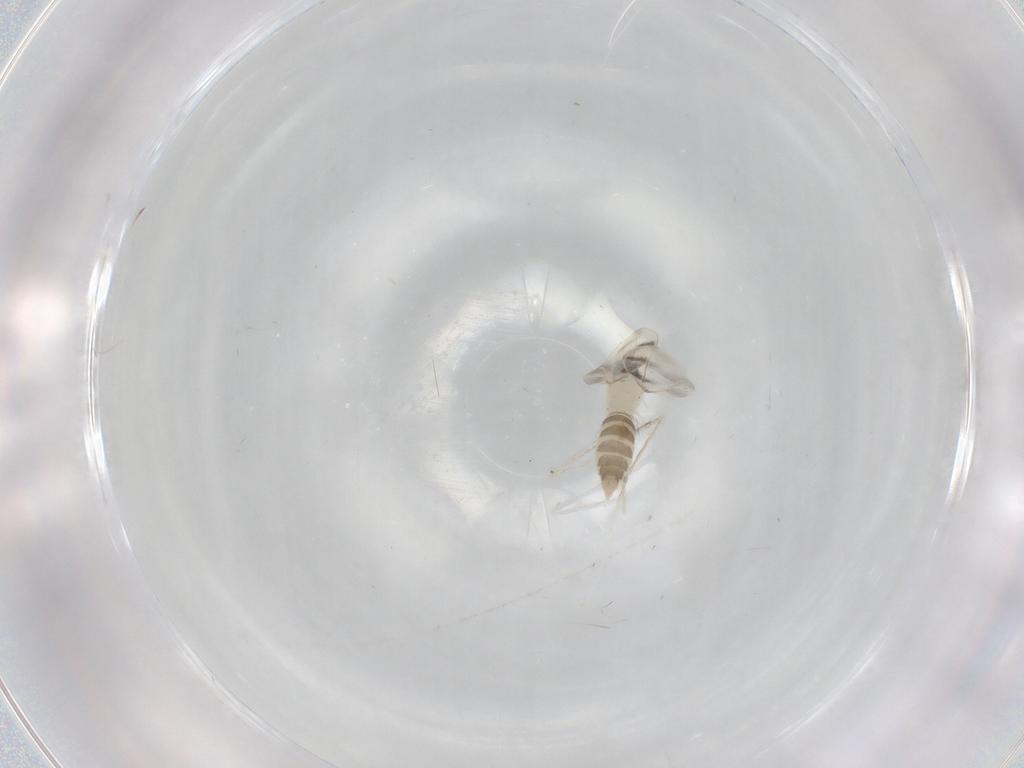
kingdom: Animalia
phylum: Arthropoda
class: Insecta
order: Diptera
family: Cecidomyiidae
